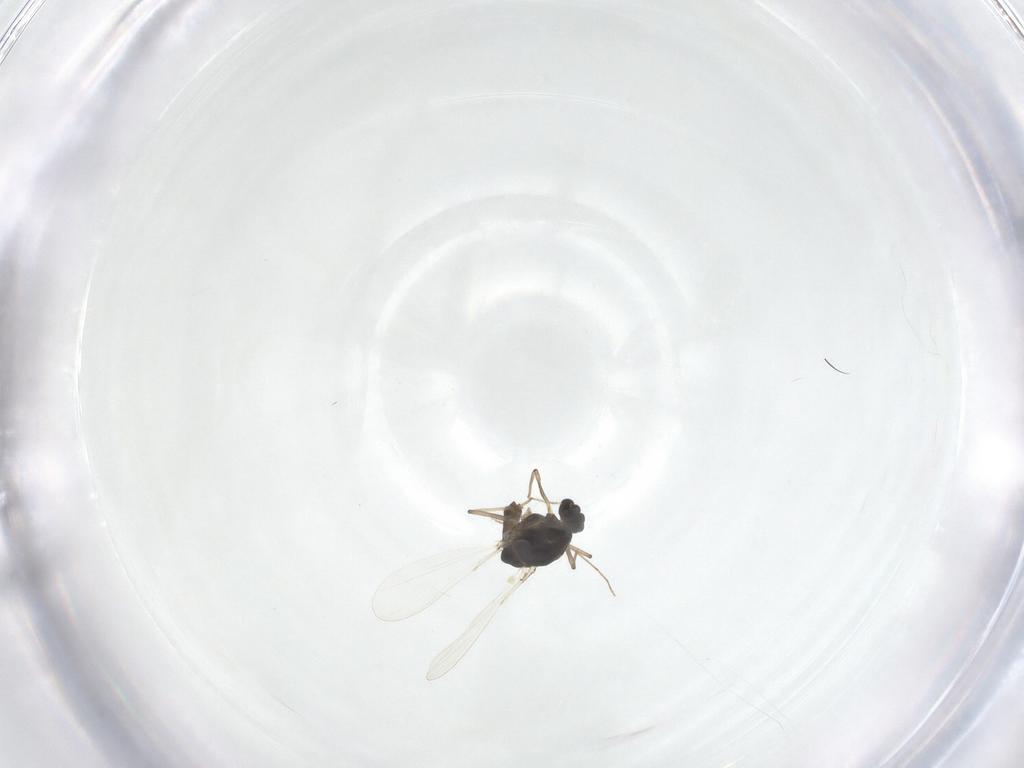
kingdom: Animalia
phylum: Arthropoda
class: Insecta
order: Diptera
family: Chironomidae
